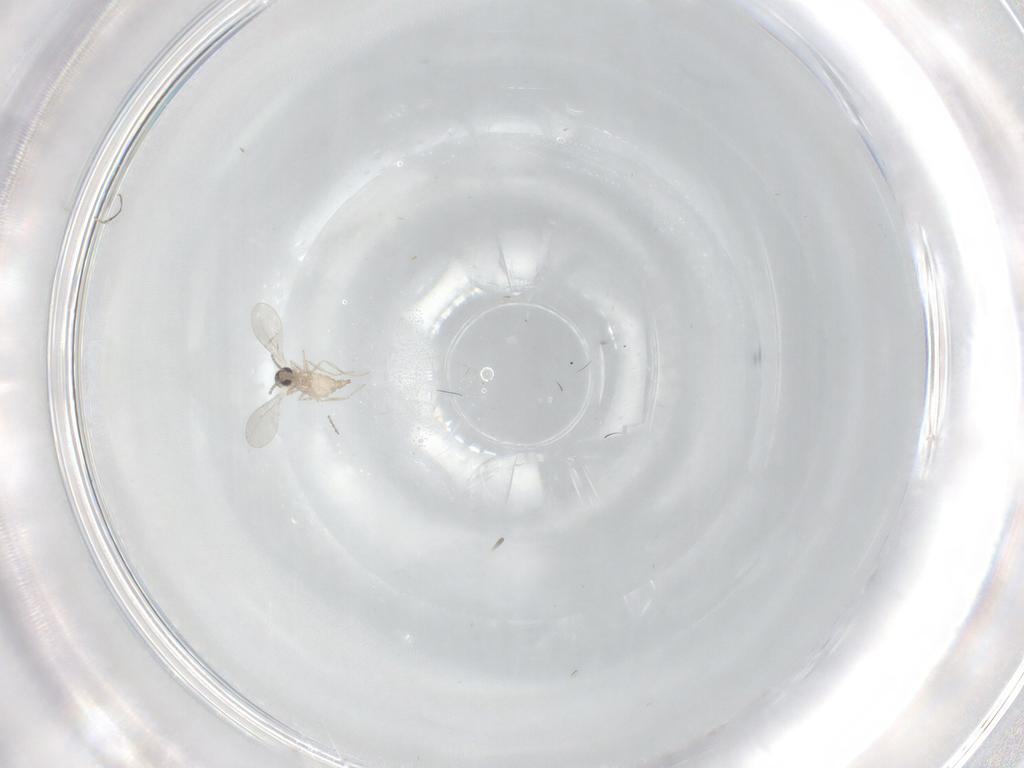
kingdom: Animalia
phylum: Arthropoda
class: Insecta
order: Diptera
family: Cecidomyiidae
